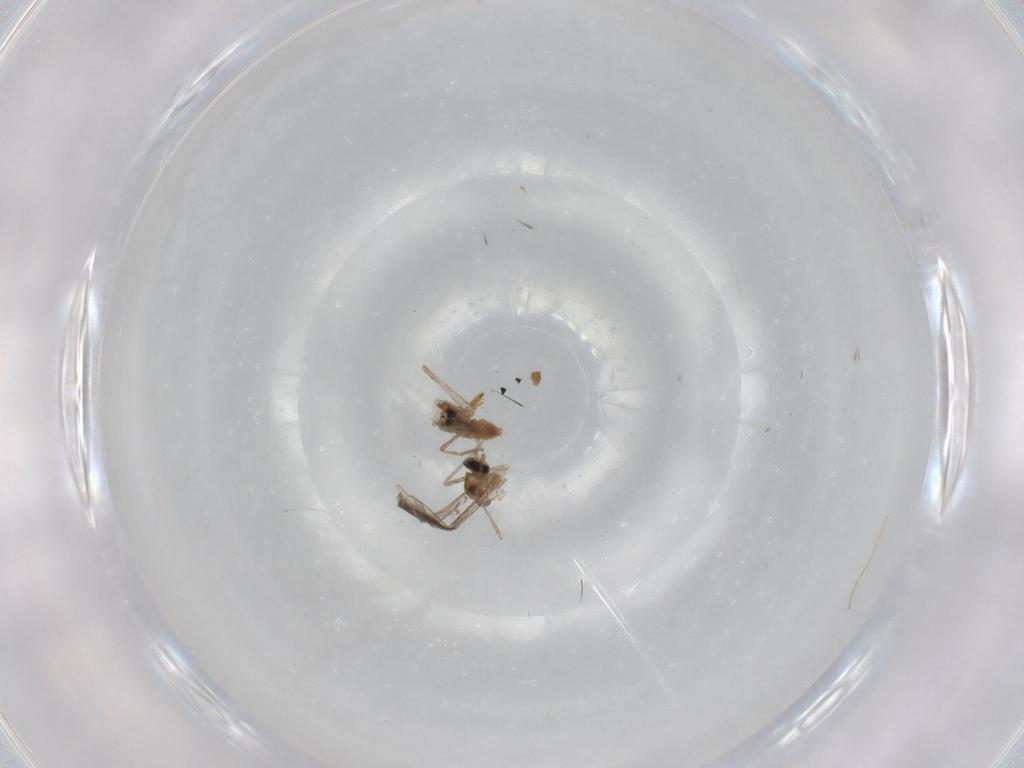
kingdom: Animalia
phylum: Arthropoda
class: Insecta
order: Diptera
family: Chironomidae
